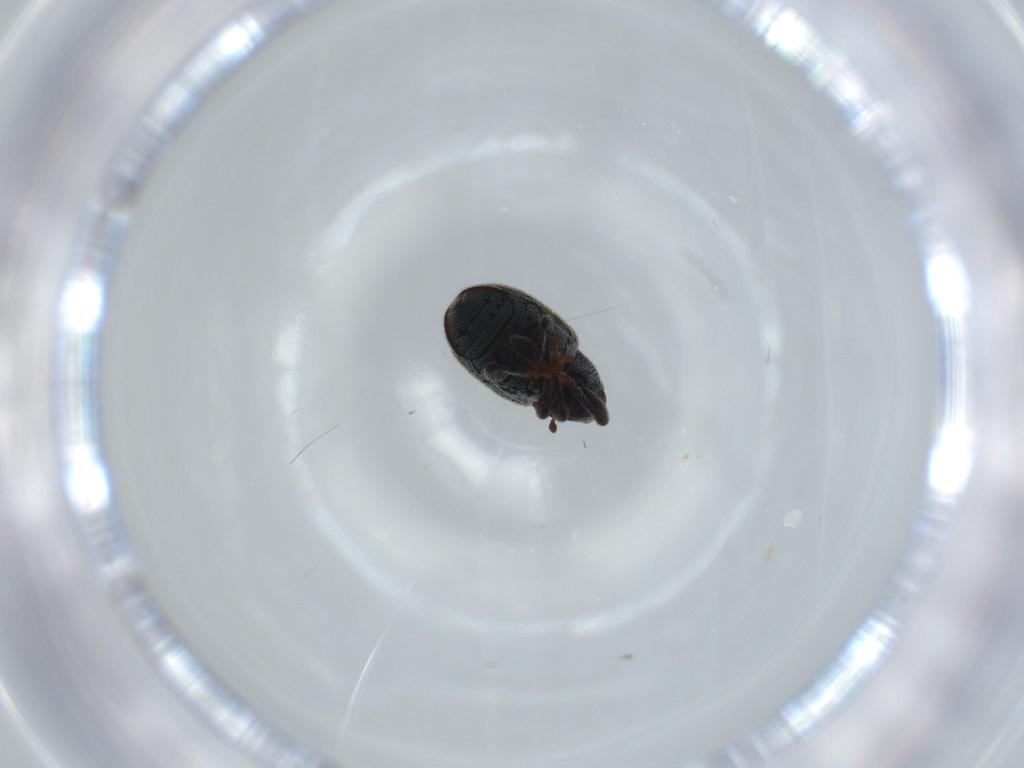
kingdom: Animalia
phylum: Arthropoda
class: Insecta
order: Coleoptera
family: Curculionidae
